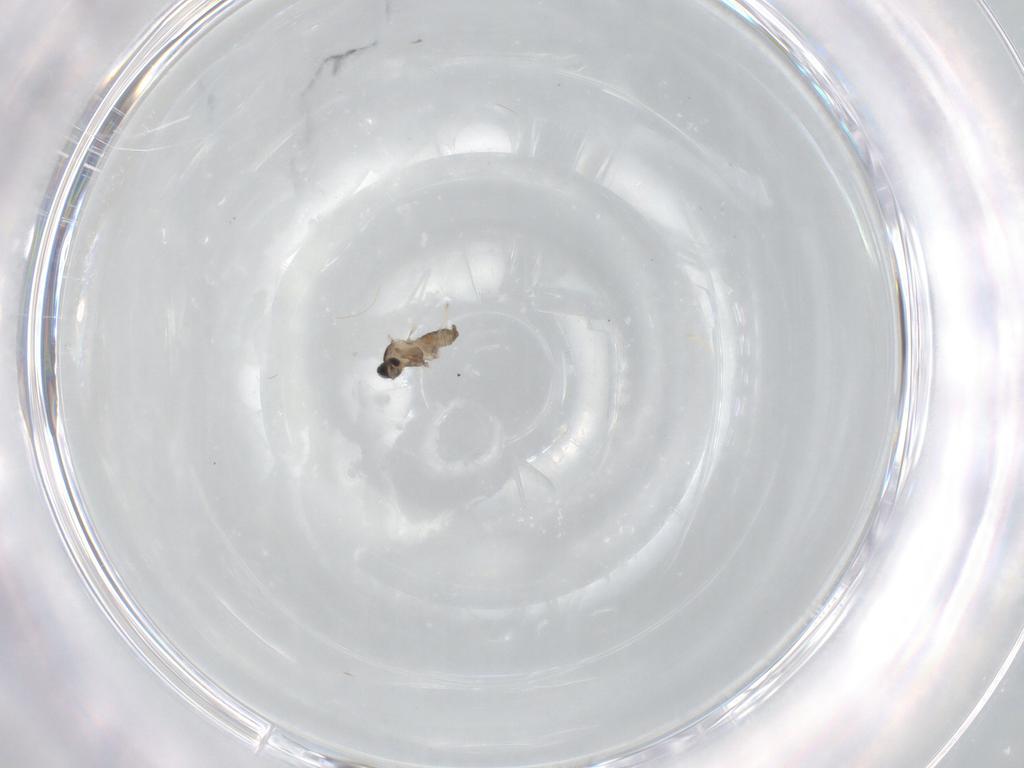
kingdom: Animalia
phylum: Arthropoda
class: Insecta
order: Diptera
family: Cecidomyiidae
